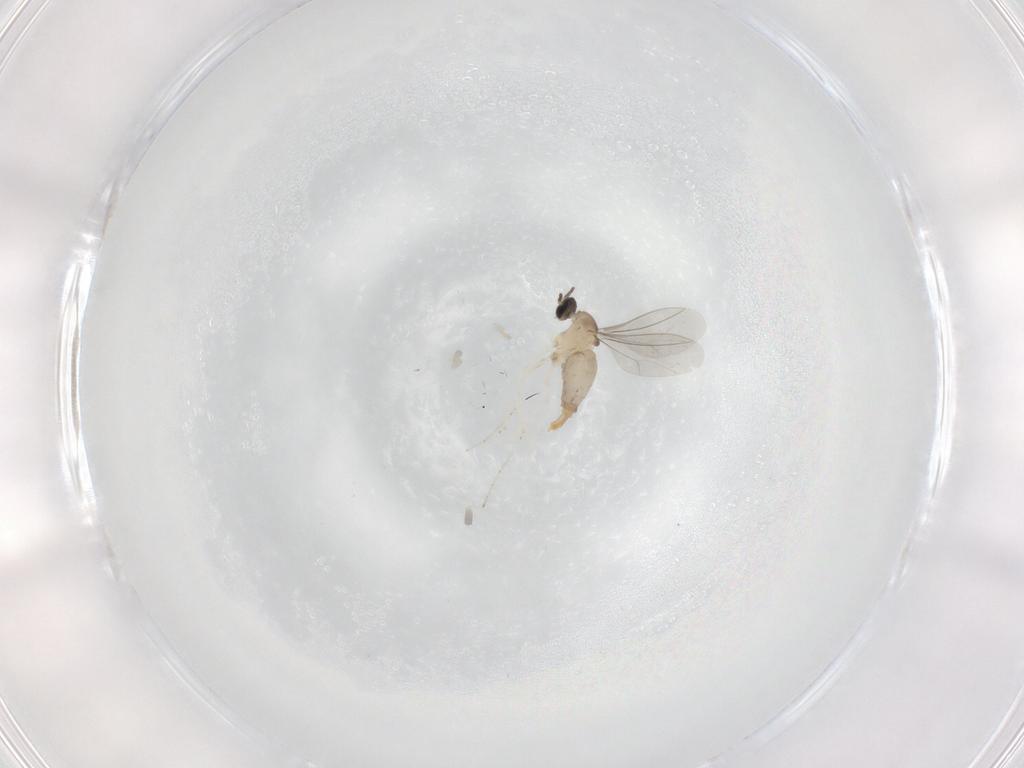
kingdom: Animalia
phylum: Arthropoda
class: Insecta
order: Diptera
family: Cecidomyiidae
